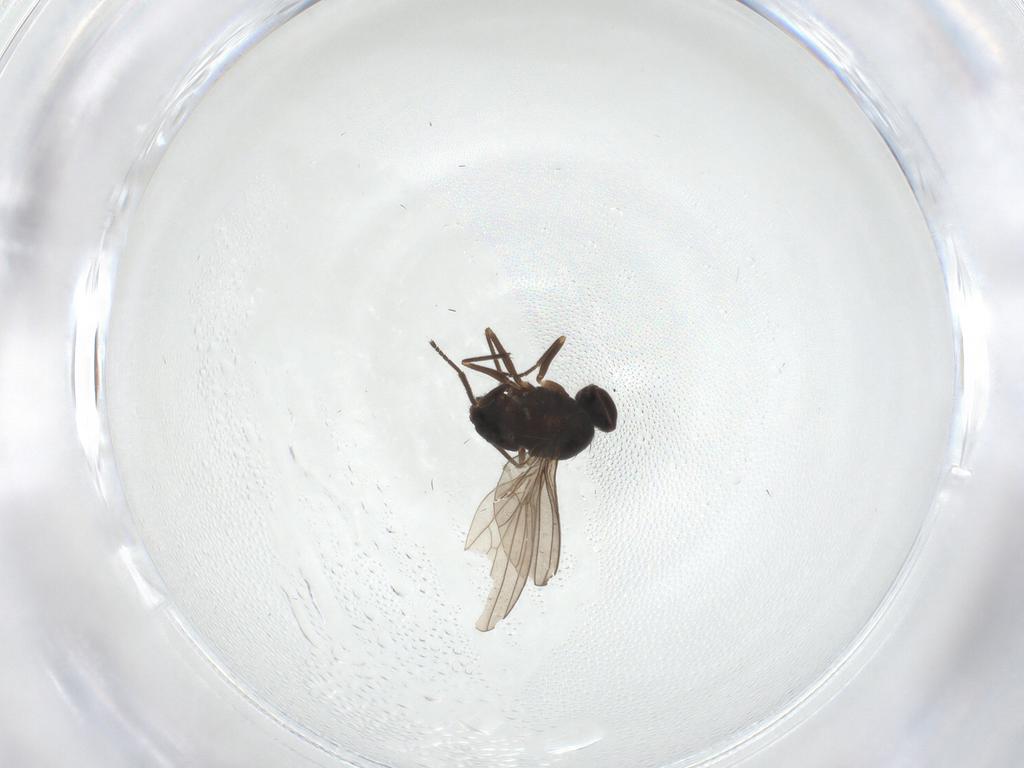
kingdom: Animalia
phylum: Arthropoda
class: Insecta
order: Diptera
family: Dolichopodidae
